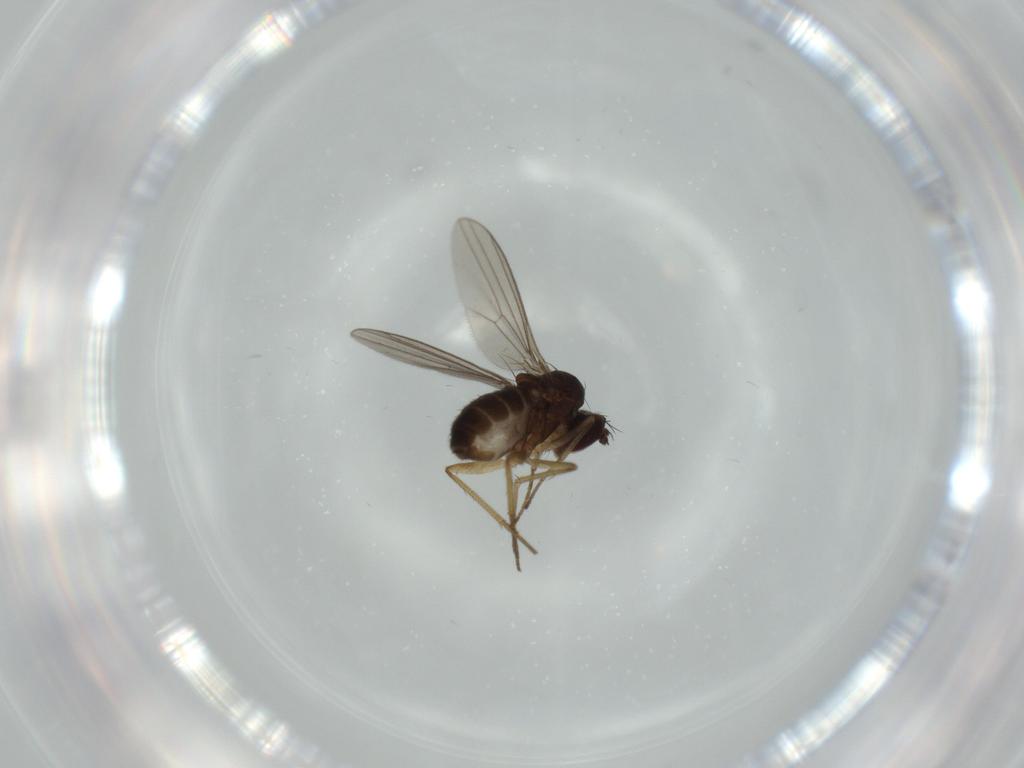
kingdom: Animalia
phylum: Arthropoda
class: Insecta
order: Diptera
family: Dolichopodidae
